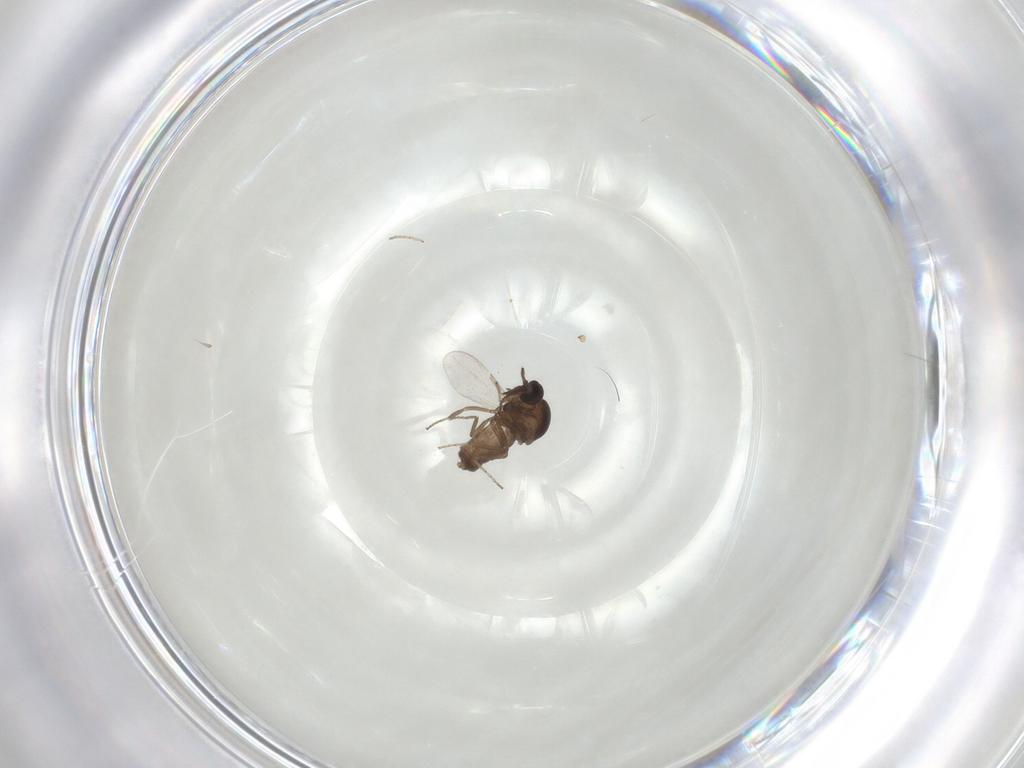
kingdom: Animalia
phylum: Arthropoda
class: Insecta
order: Diptera
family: Ceratopogonidae
